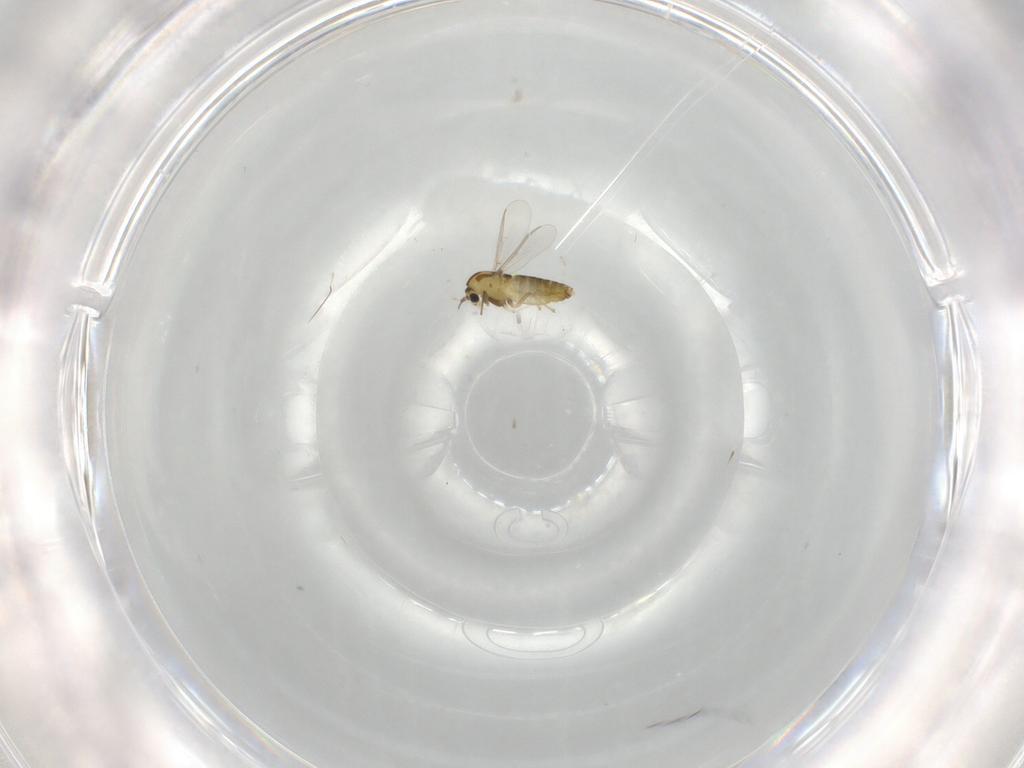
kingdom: Animalia
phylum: Arthropoda
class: Insecta
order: Diptera
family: Chironomidae
